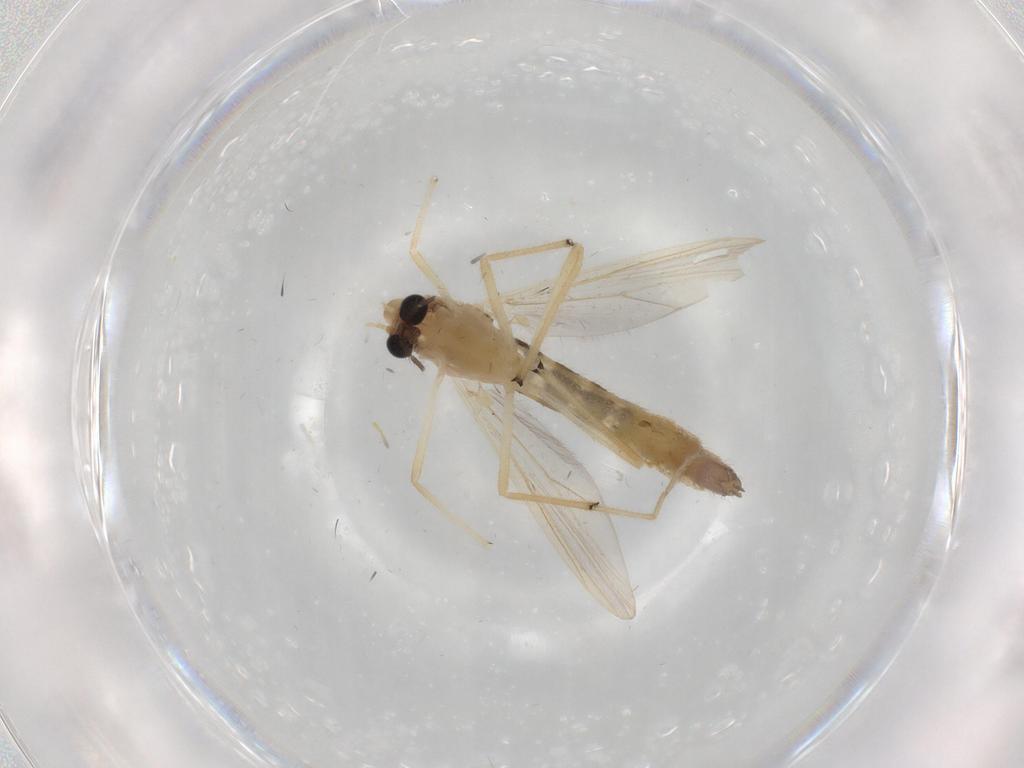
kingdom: Animalia
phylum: Arthropoda
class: Insecta
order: Diptera
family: Chironomidae
